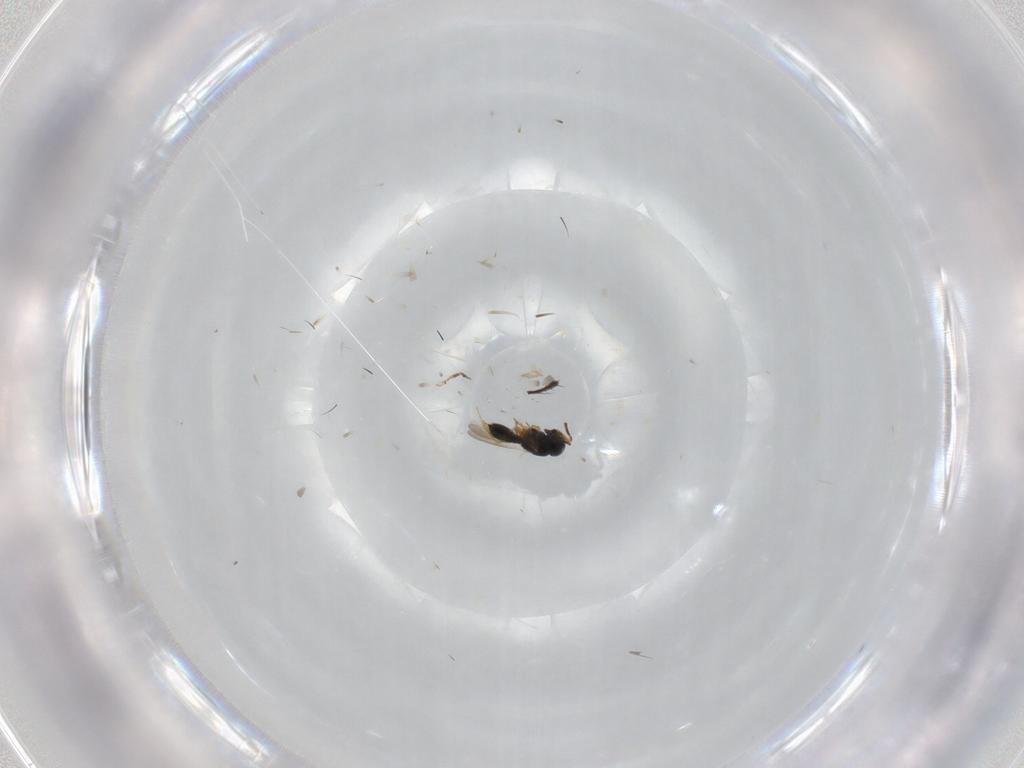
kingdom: Animalia
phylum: Arthropoda
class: Insecta
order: Hymenoptera
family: Scelionidae
